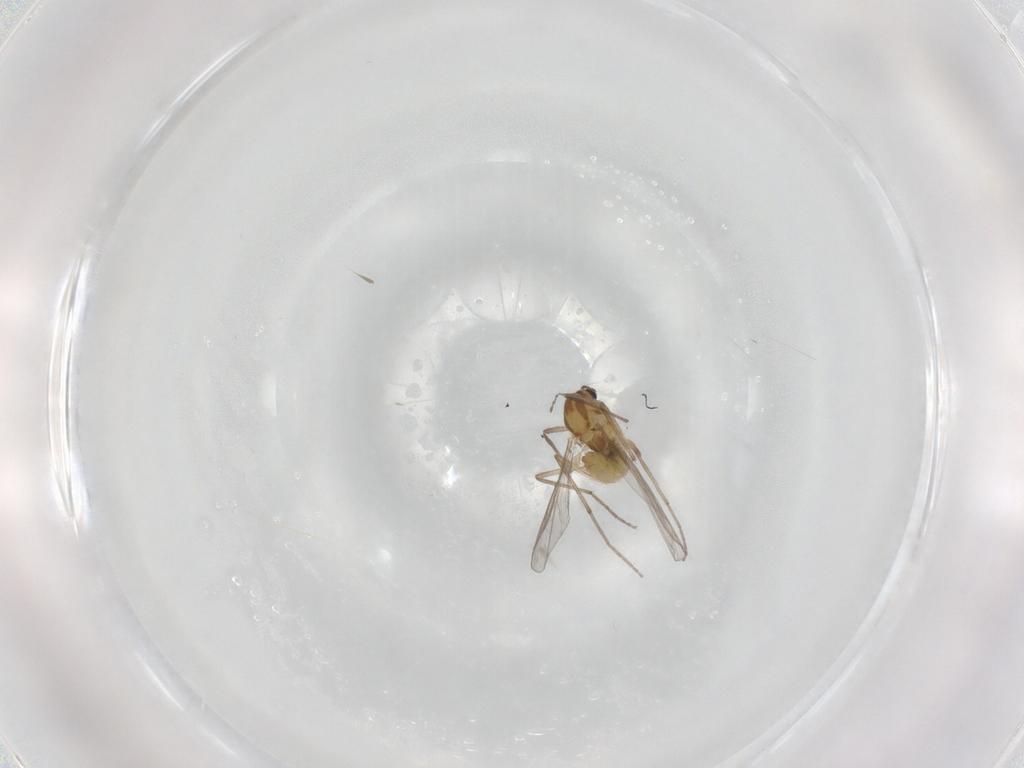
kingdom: Animalia
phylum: Arthropoda
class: Insecta
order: Diptera
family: Chironomidae
